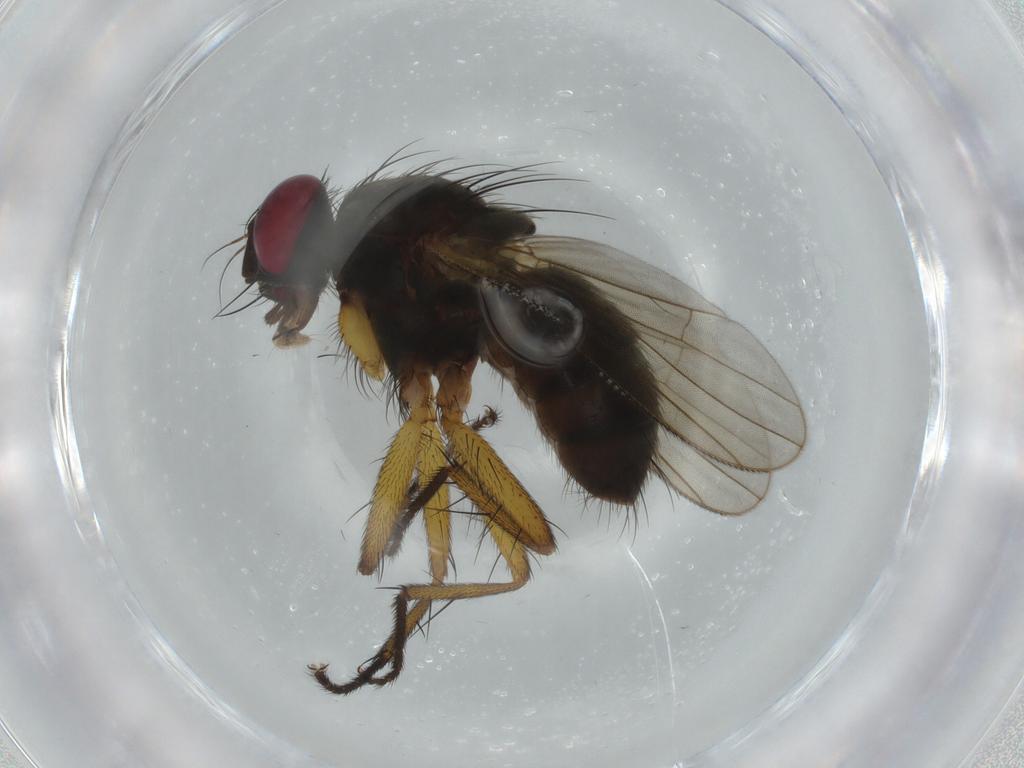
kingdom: Animalia
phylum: Arthropoda
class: Insecta
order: Diptera
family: Muscidae
